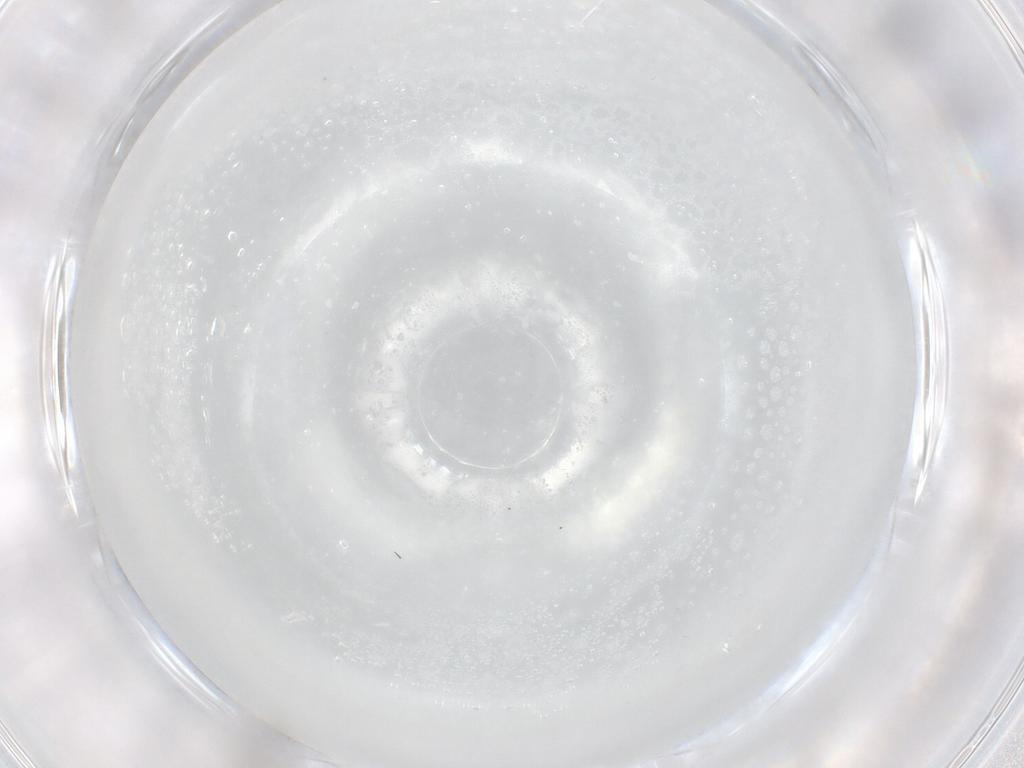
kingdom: Animalia
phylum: Arthropoda
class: Insecta
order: Hymenoptera
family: Mymaridae
